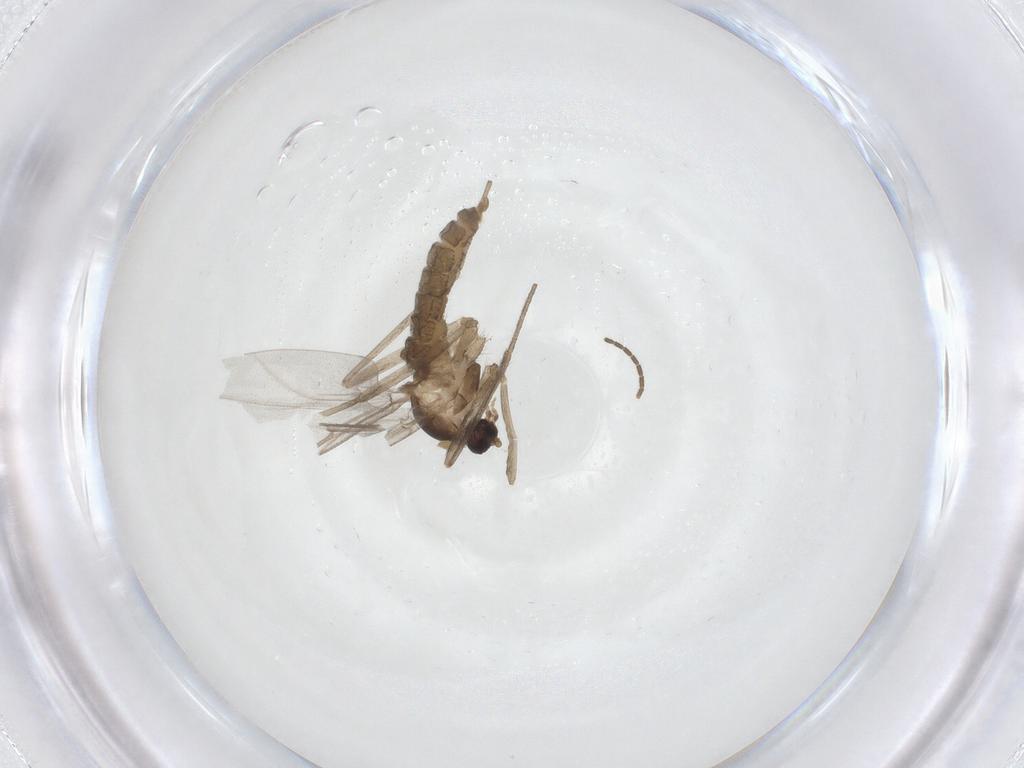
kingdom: Animalia
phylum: Arthropoda
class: Insecta
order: Diptera
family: Cecidomyiidae
